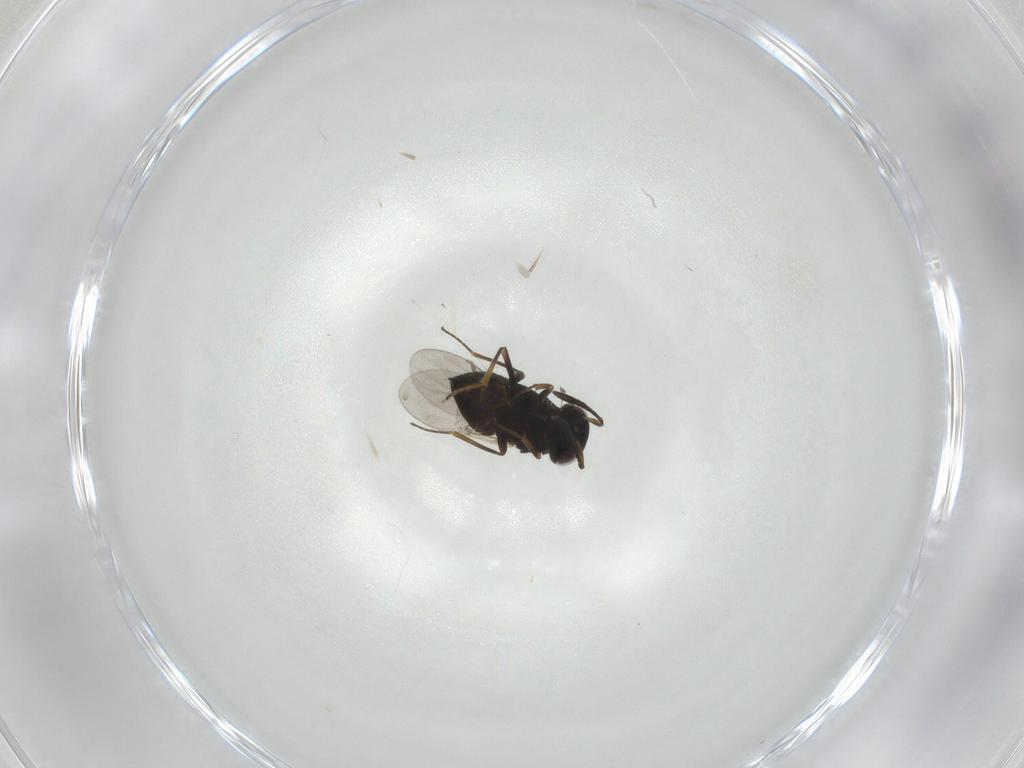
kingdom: Animalia
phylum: Arthropoda
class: Insecta
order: Hymenoptera
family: Encyrtidae
